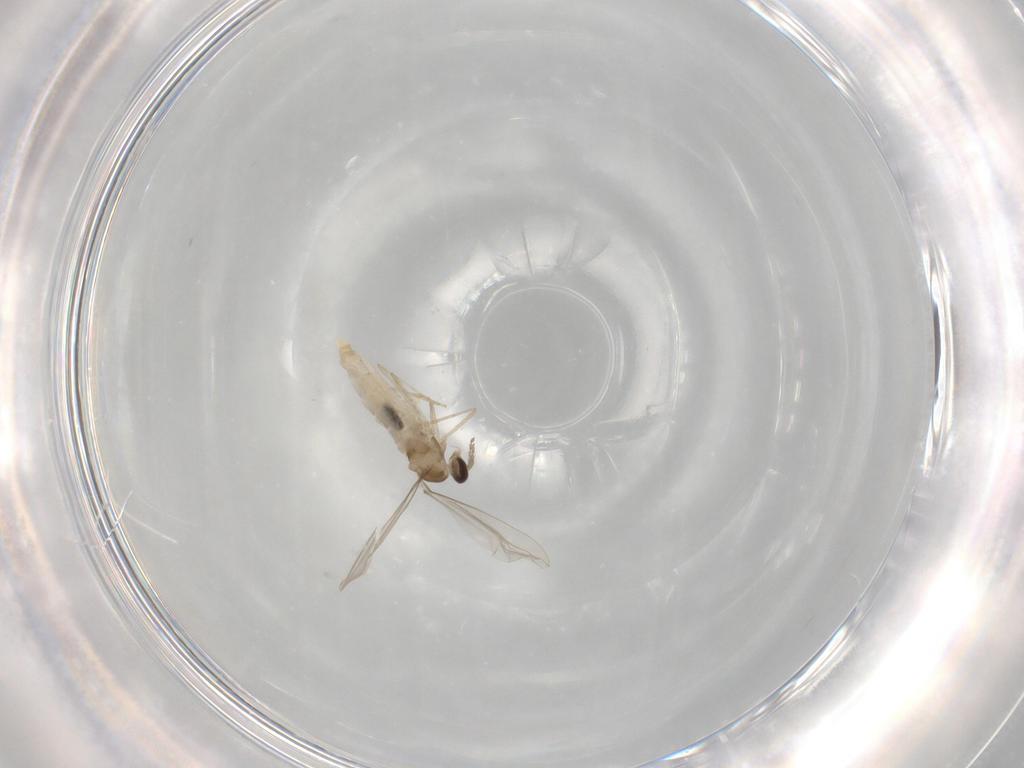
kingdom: Animalia
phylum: Arthropoda
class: Insecta
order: Diptera
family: Cecidomyiidae
